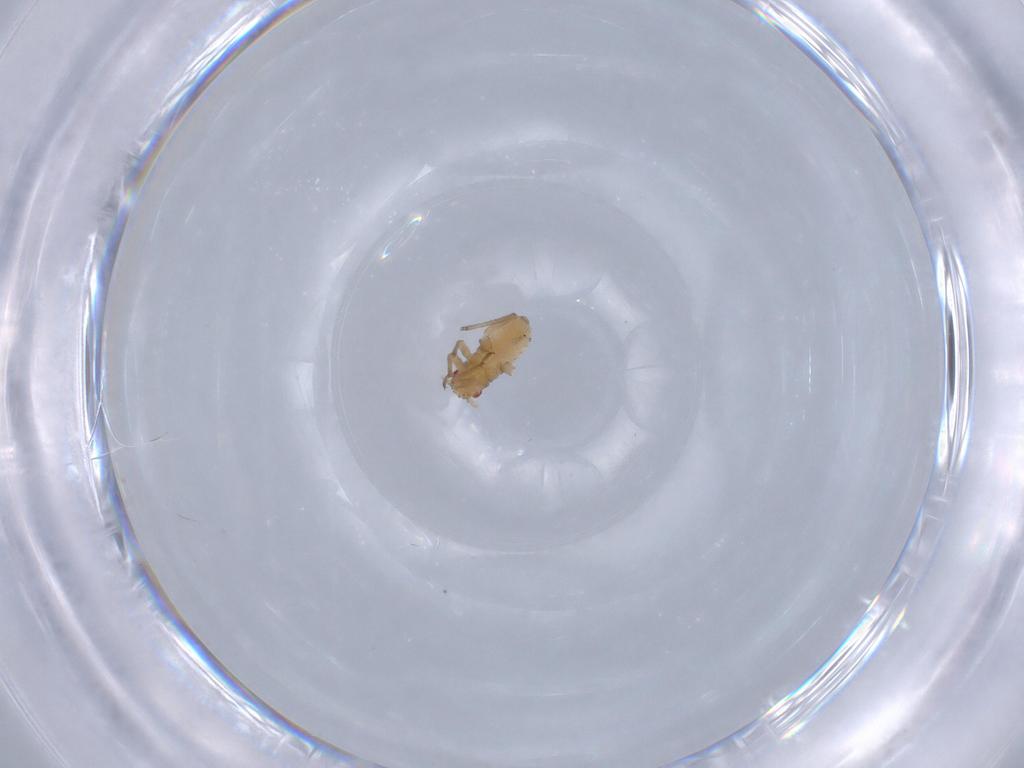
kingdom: Animalia
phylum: Arthropoda
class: Insecta
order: Hemiptera
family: Aphididae
